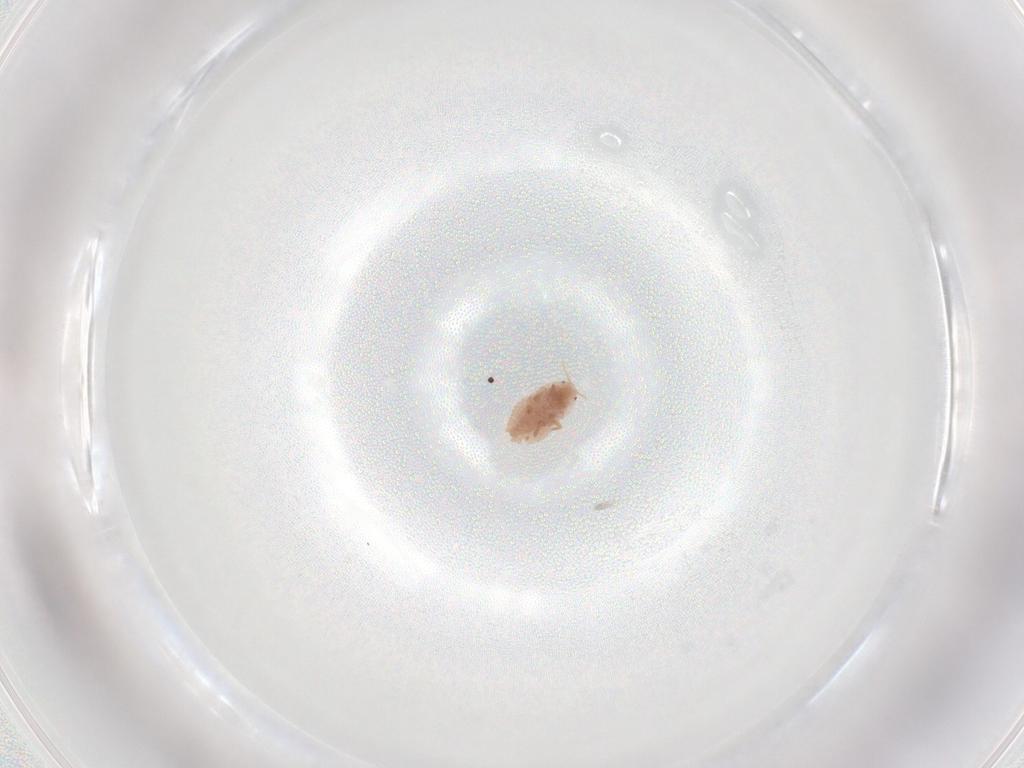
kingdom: Animalia
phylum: Arthropoda
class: Insecta
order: Hemiptera
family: Pseudococcidae
